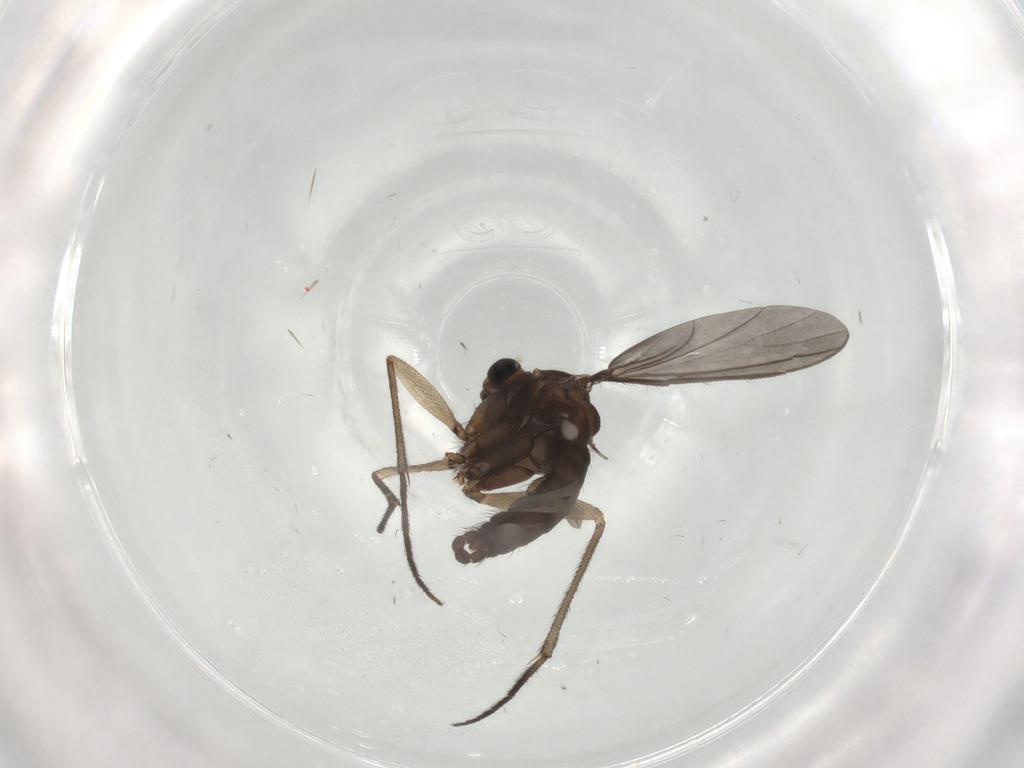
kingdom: Animalia
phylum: Arthropoda
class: Insecta
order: Diptera
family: Sciaridae
